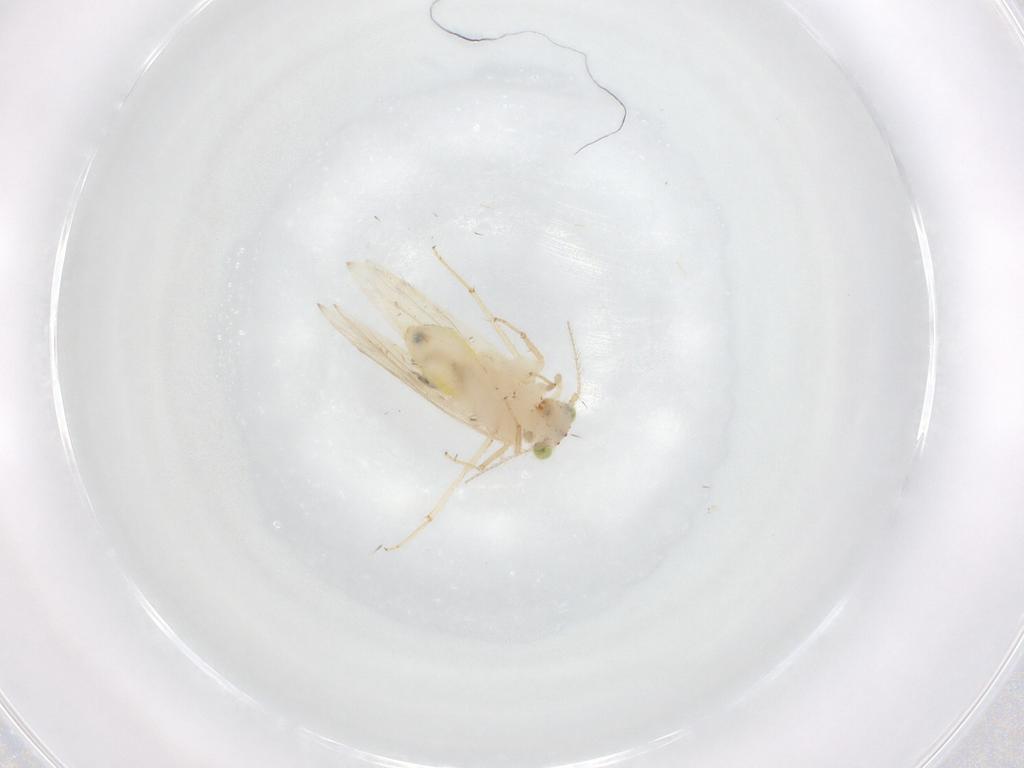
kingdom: Animalia
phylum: Arthropoda
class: Insecta
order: Psocodea
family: Lepidopsocidae
